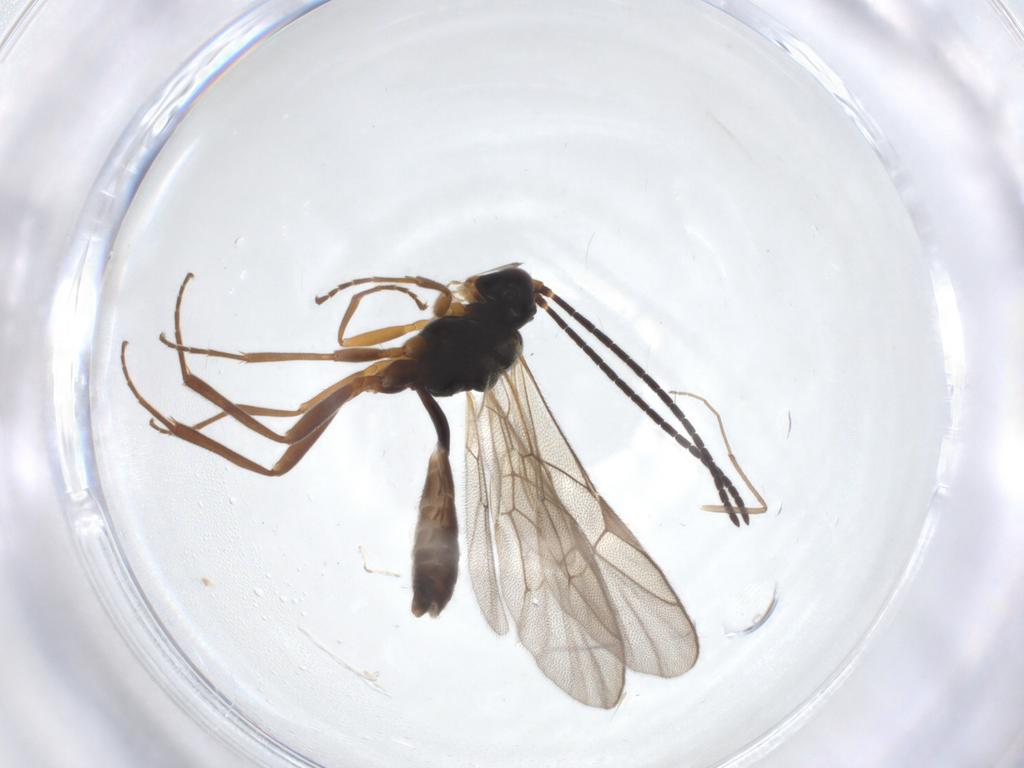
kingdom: Animalia
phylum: Arthropoda
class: Insecta
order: Hymenoptera
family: Ichneumonidae
